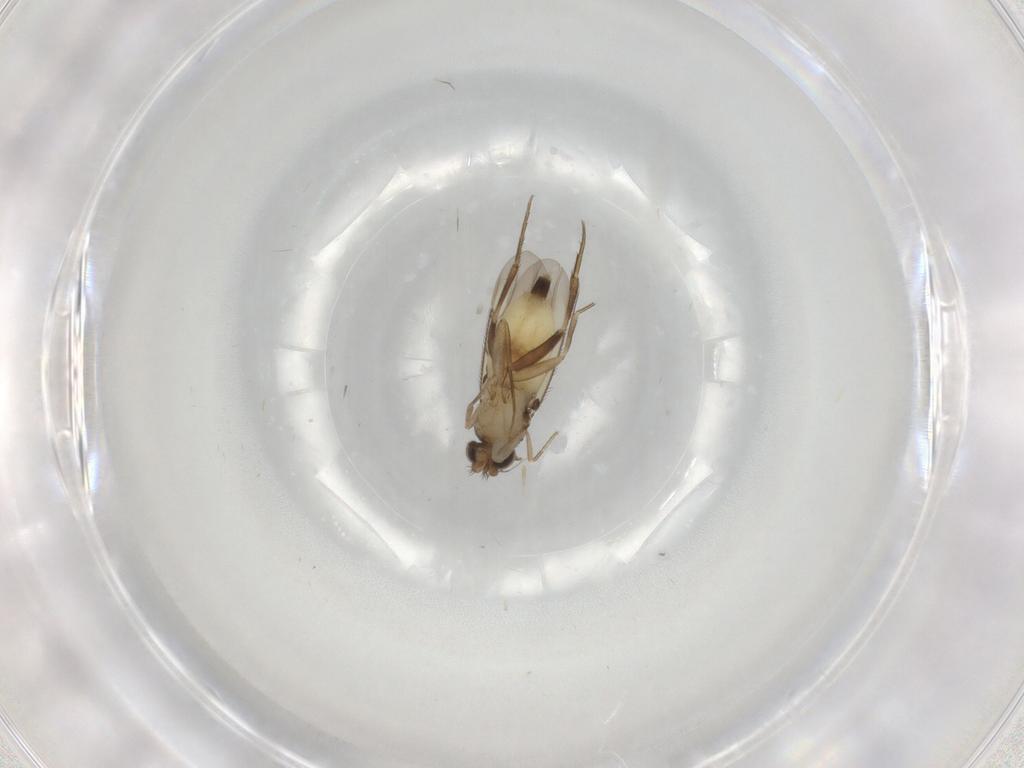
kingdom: Animalia
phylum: Arthropoda
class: Insecta
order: Diptera
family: Phoridae
